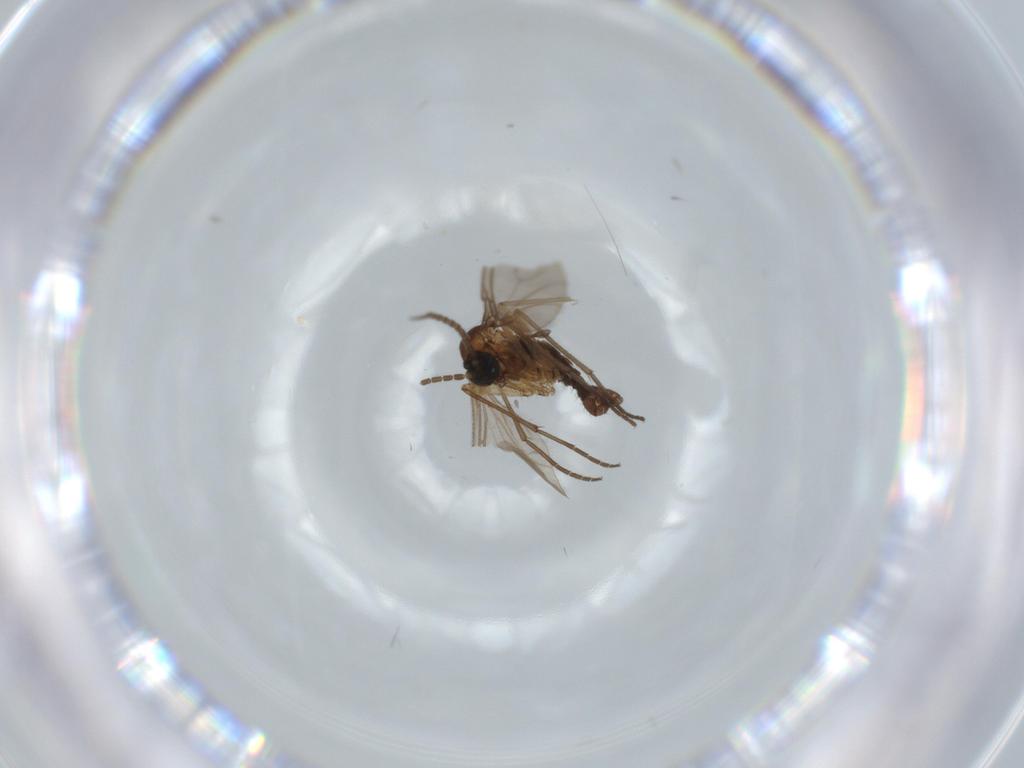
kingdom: Animalia
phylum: Arthropoda
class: Insecta
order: Diptera
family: Sciaridae
